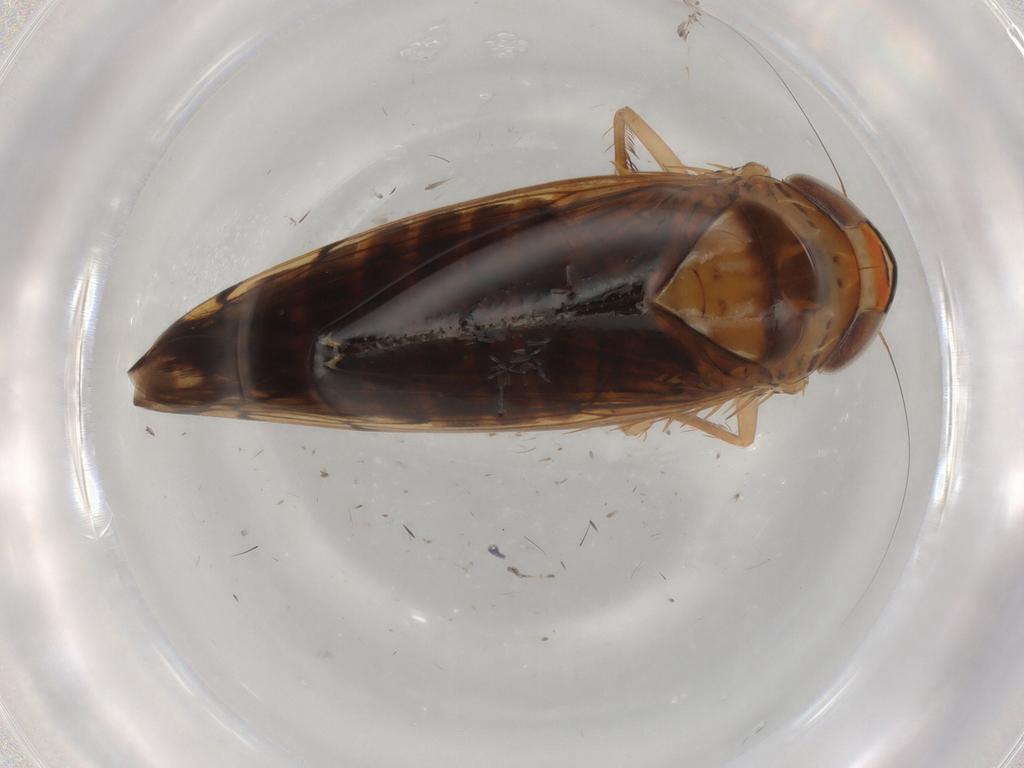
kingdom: Animalia
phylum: Arthropoda
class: Insecta
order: Hemiptera
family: Cicadellidae
